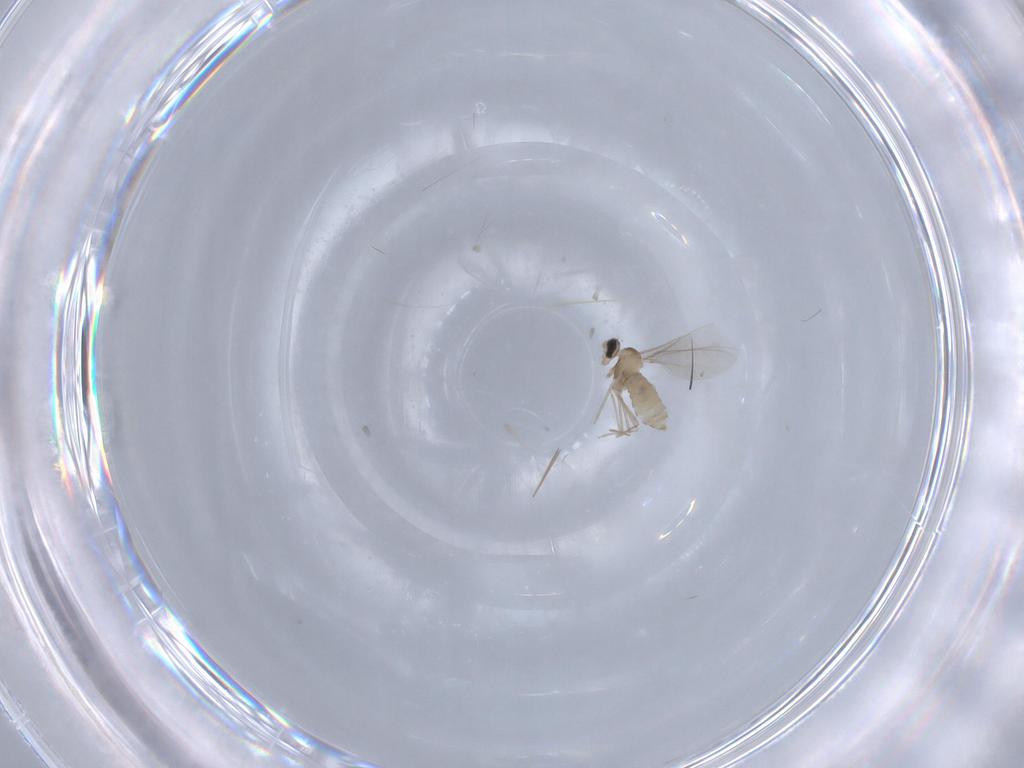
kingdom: Animalia
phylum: Arthropoda
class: Insecta
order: Diptera
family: Cecidomyiidae
